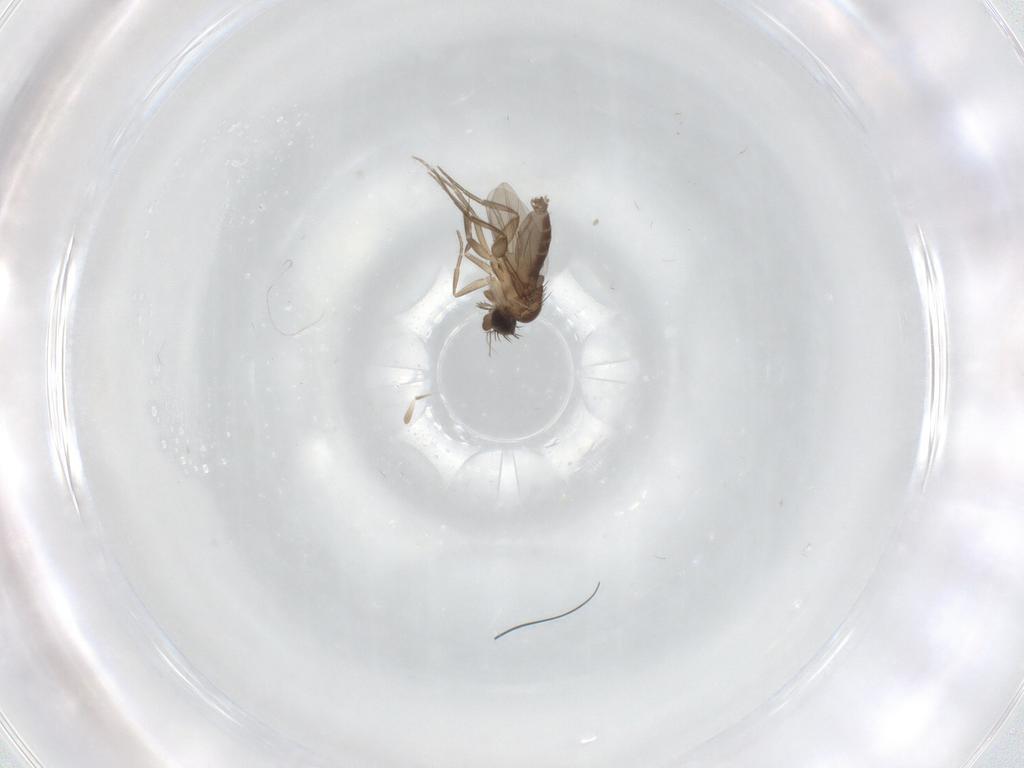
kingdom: Animalia
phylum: Arthropoda
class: Insecta
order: Diptera
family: Phoridae
